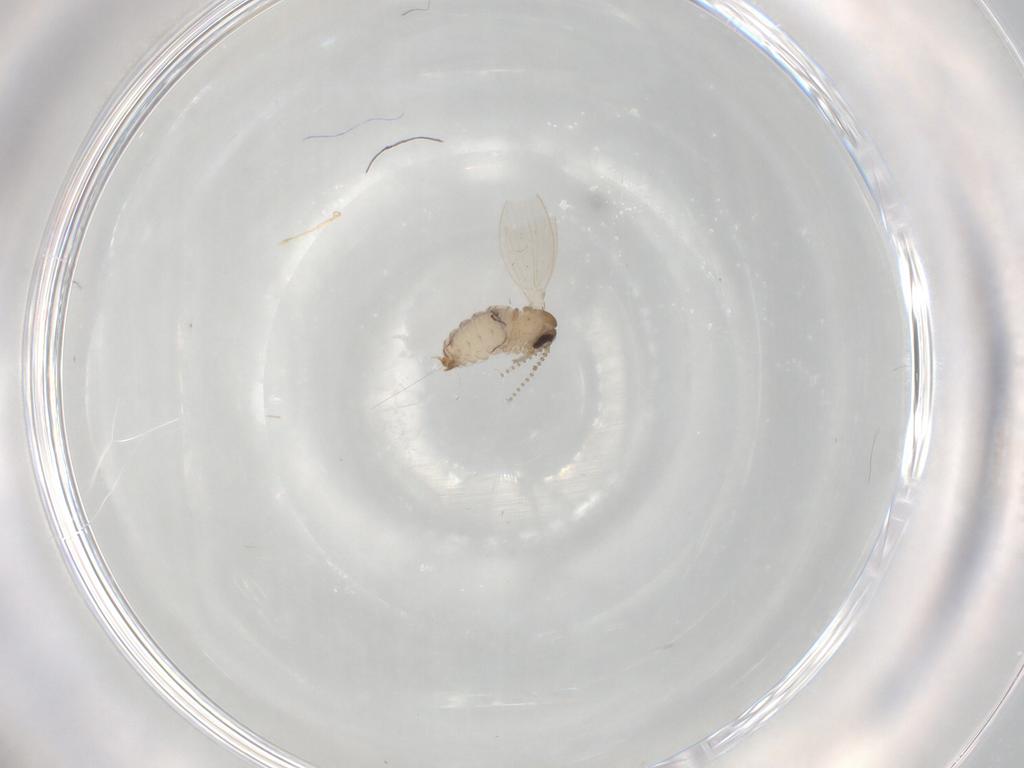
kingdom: Animalia
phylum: Arthropoda
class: Insecta
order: Diptera
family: Psychodidae
